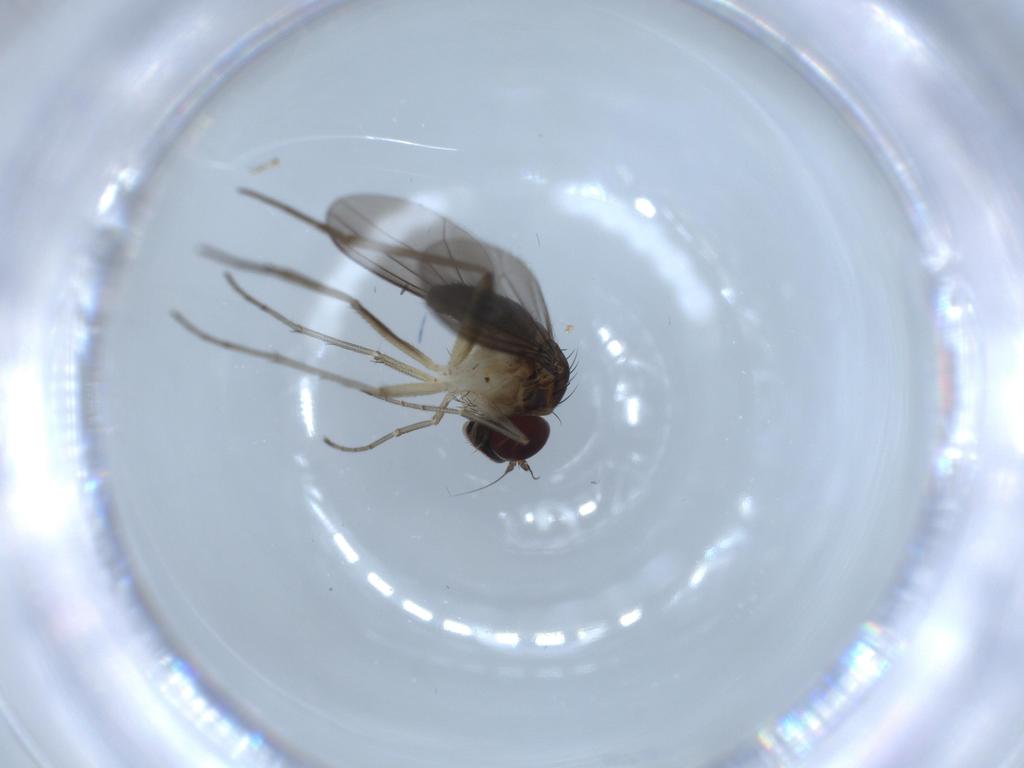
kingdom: Animalia
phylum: Arthropoda
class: Insecta
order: Diptera
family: Dolichopodidae
